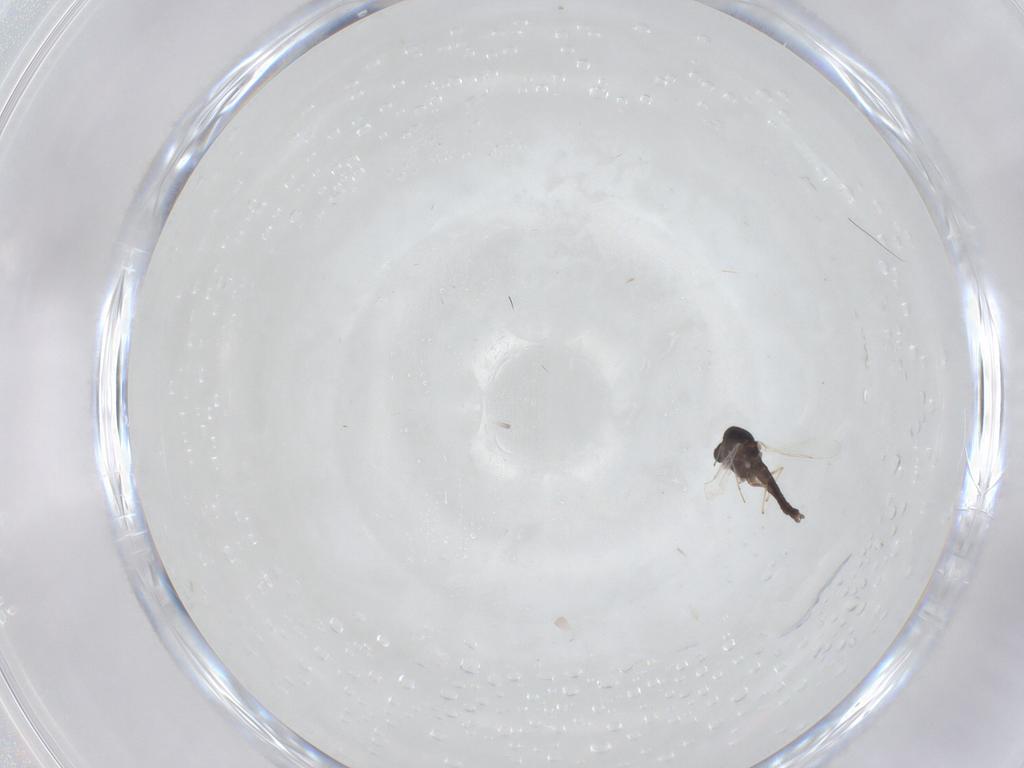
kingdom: Animalia
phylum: Arthropoda
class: Insecta
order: Diptera
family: Chironomidae
